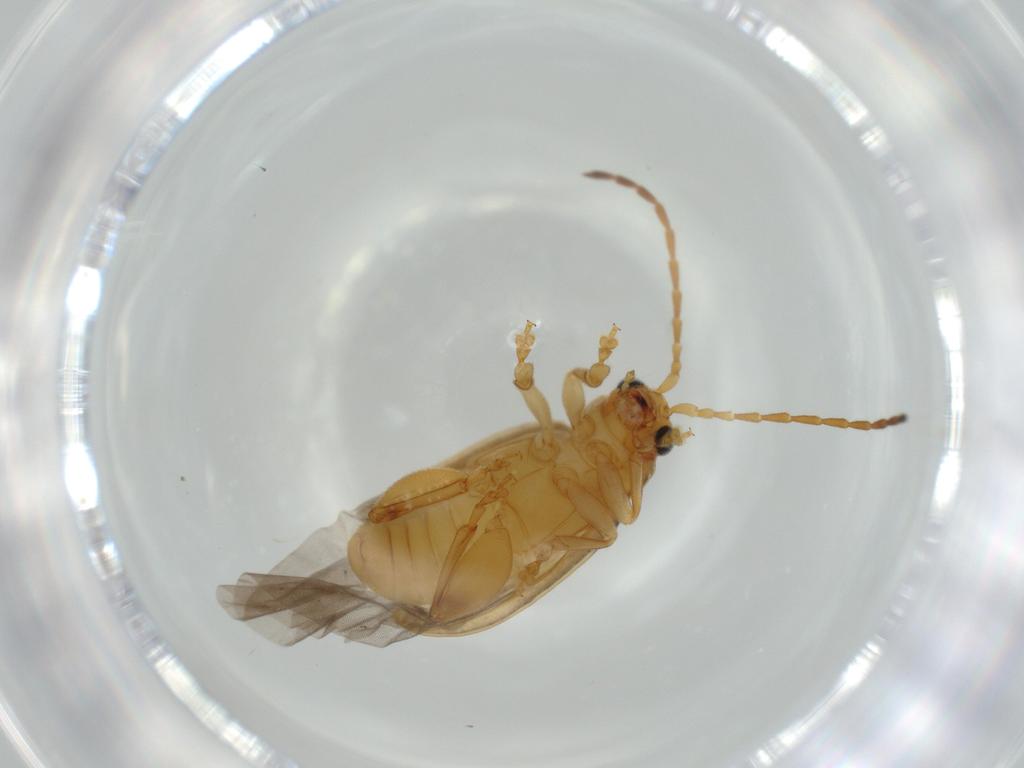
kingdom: Animalia
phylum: Arthropoda
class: Insecta
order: Coleoptera
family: Chrysomelidae
